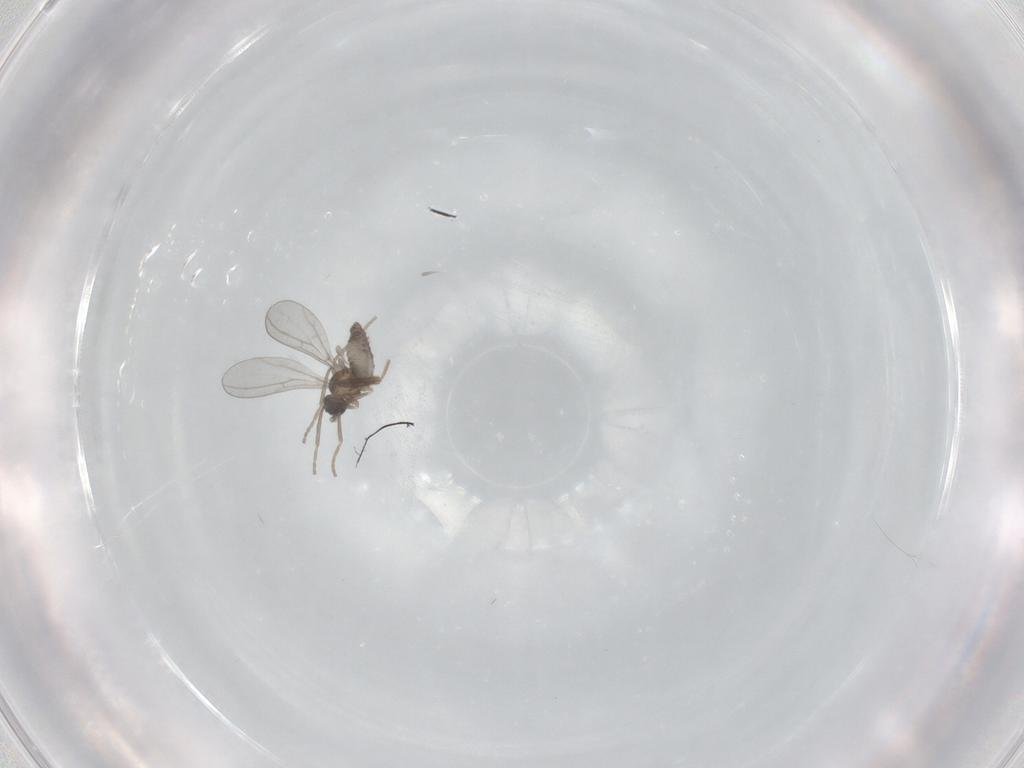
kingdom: Animalia
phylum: Arthropoda
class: Insecta
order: Diptera
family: Cecidomyiidae
